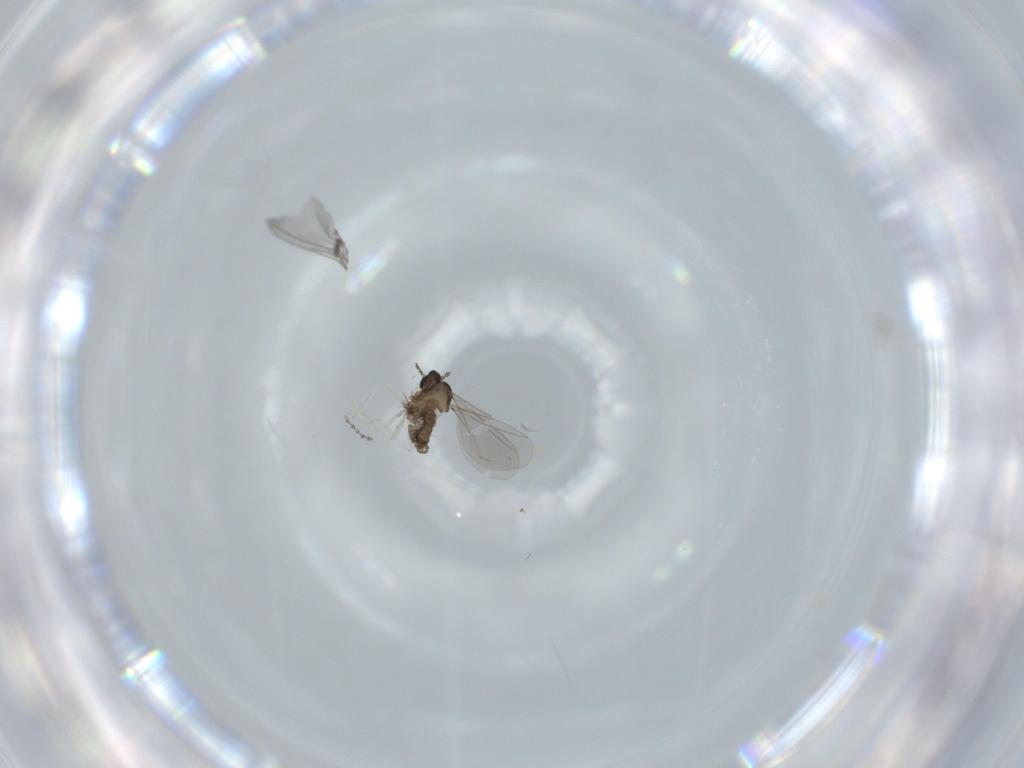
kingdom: Animalia
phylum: Arthropoda
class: Insecta
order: Diptera
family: Cecidomyiidae
